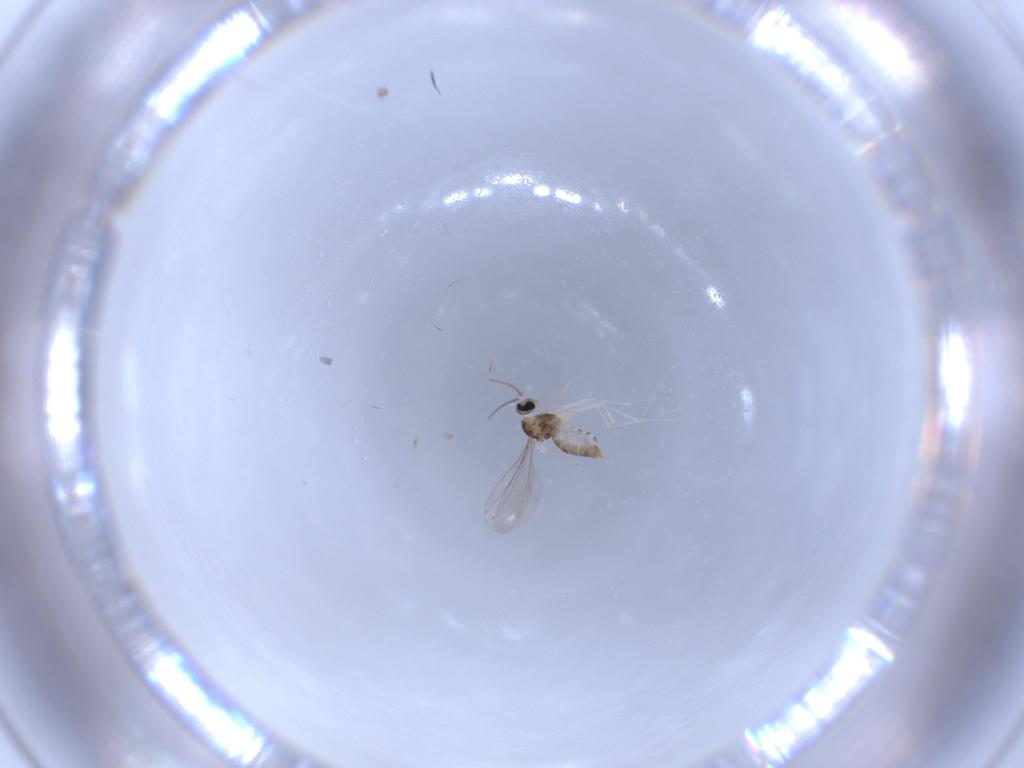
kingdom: Animalia
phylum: Arthropoda
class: Insecta
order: Diptera
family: Cecidomyiidae
